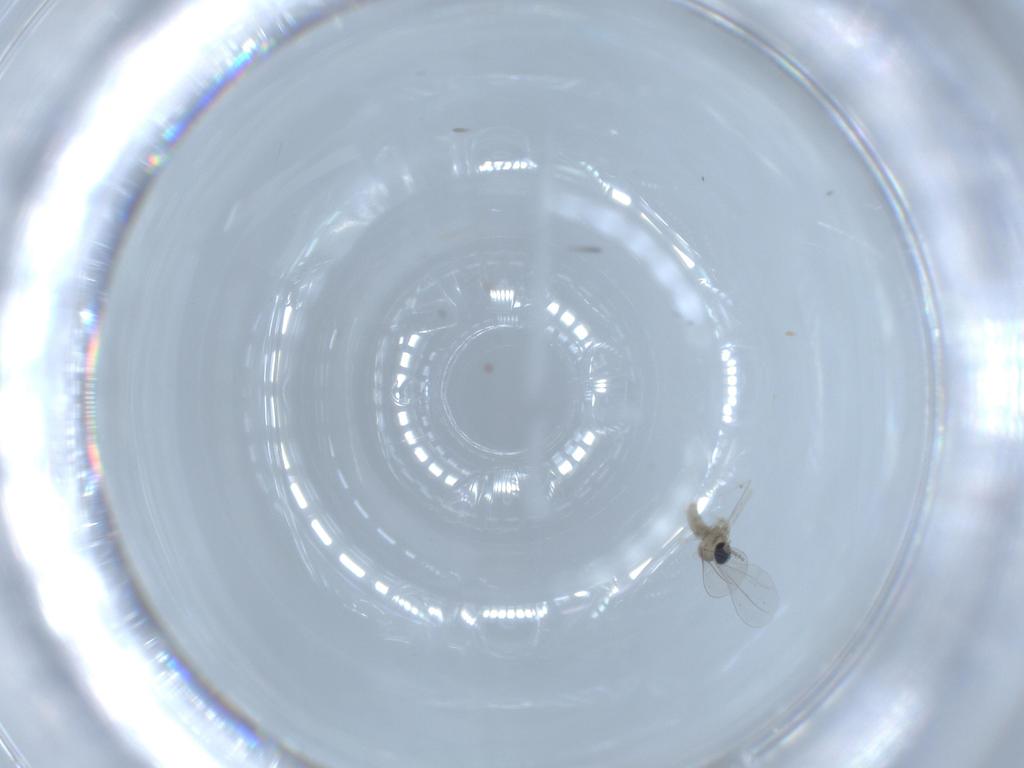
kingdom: Animalia
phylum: Arthropoda
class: Insecta
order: Diptera
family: Cecidomyiidae
